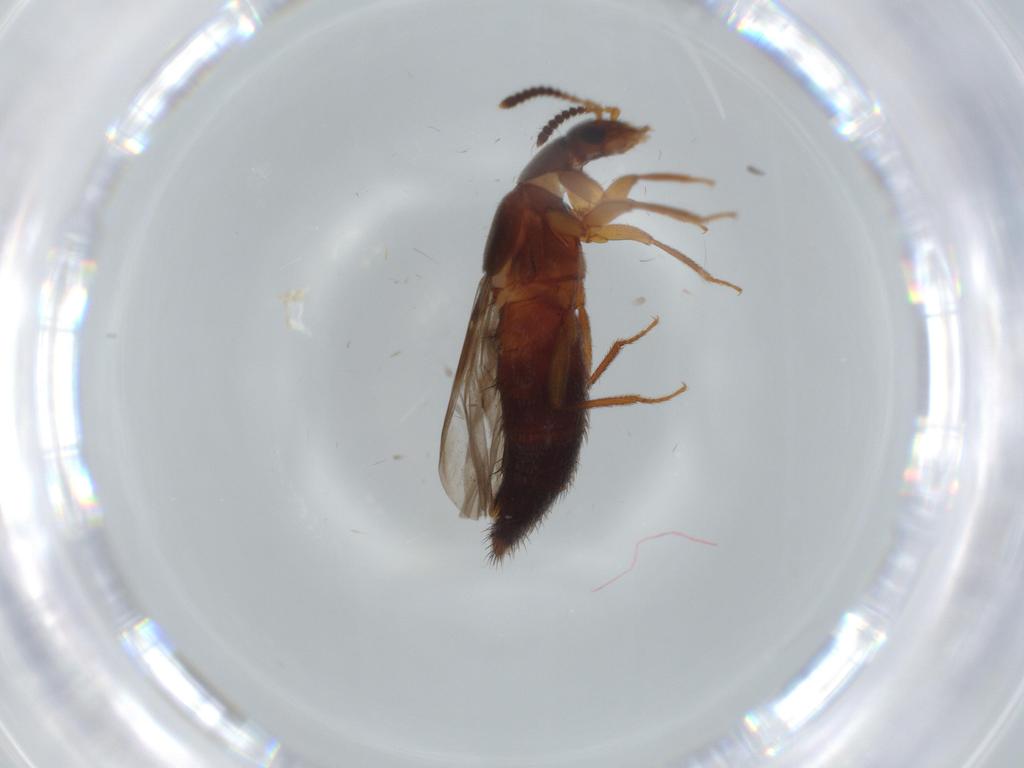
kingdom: Animalia
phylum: Arthropoda
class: Insecta
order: Coleoptera
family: Staphylinidae
